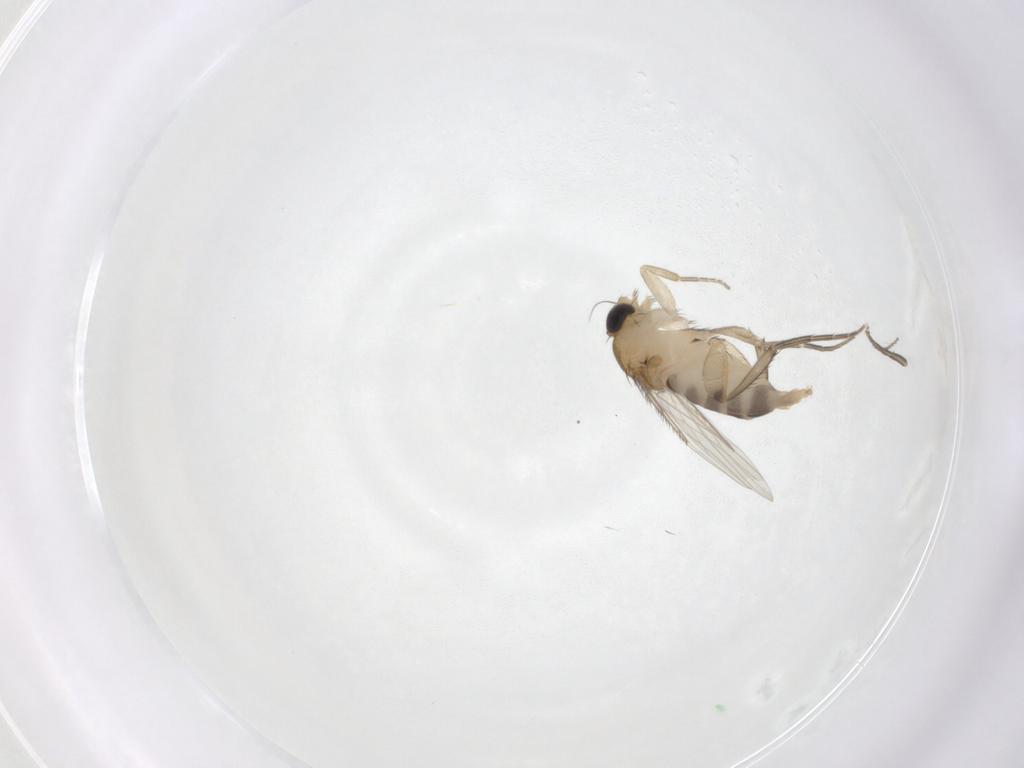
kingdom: Animalia
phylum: Arthropoda
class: Insecta
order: Diptera
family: Cecidomyiidae
